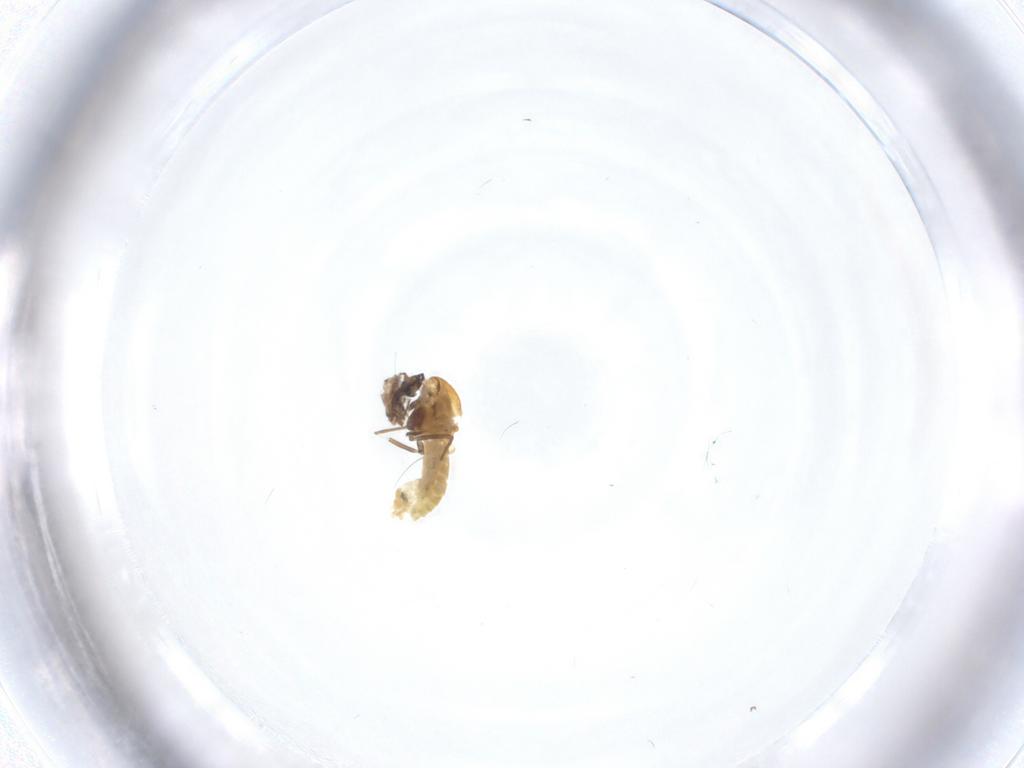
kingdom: Animalia
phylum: Arthropoda
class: Insecta
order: Diptera
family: Chironomidae
